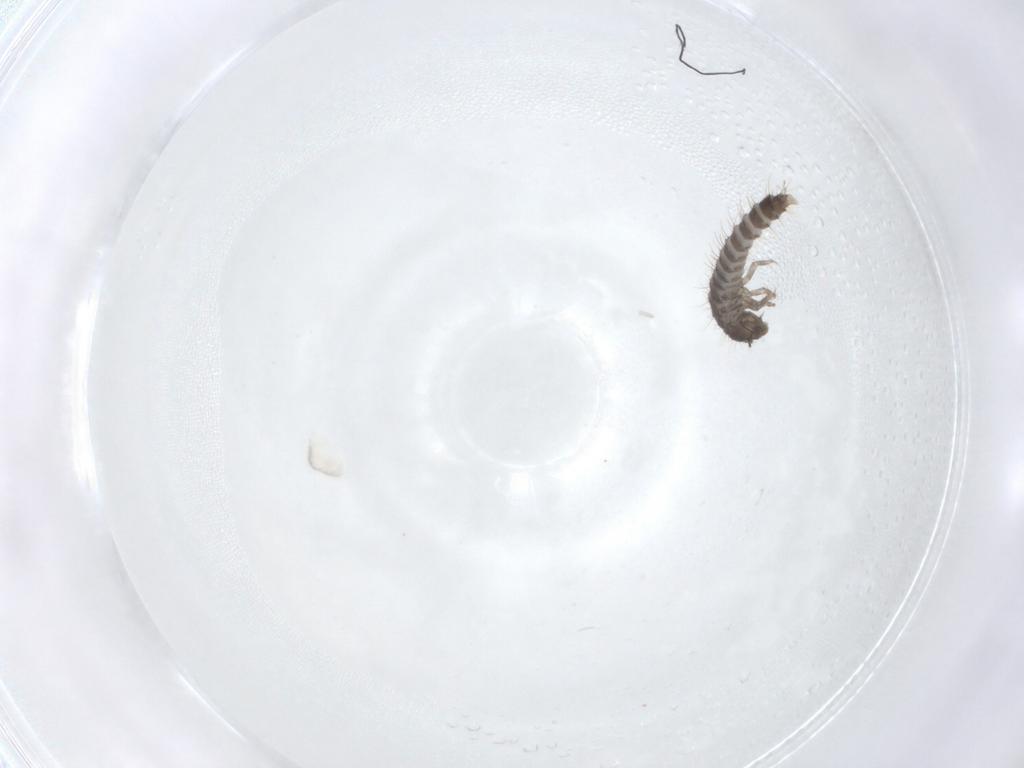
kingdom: Animalia
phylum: Arthropoda
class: Insecta
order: Coleoptera
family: Staphylinidae
